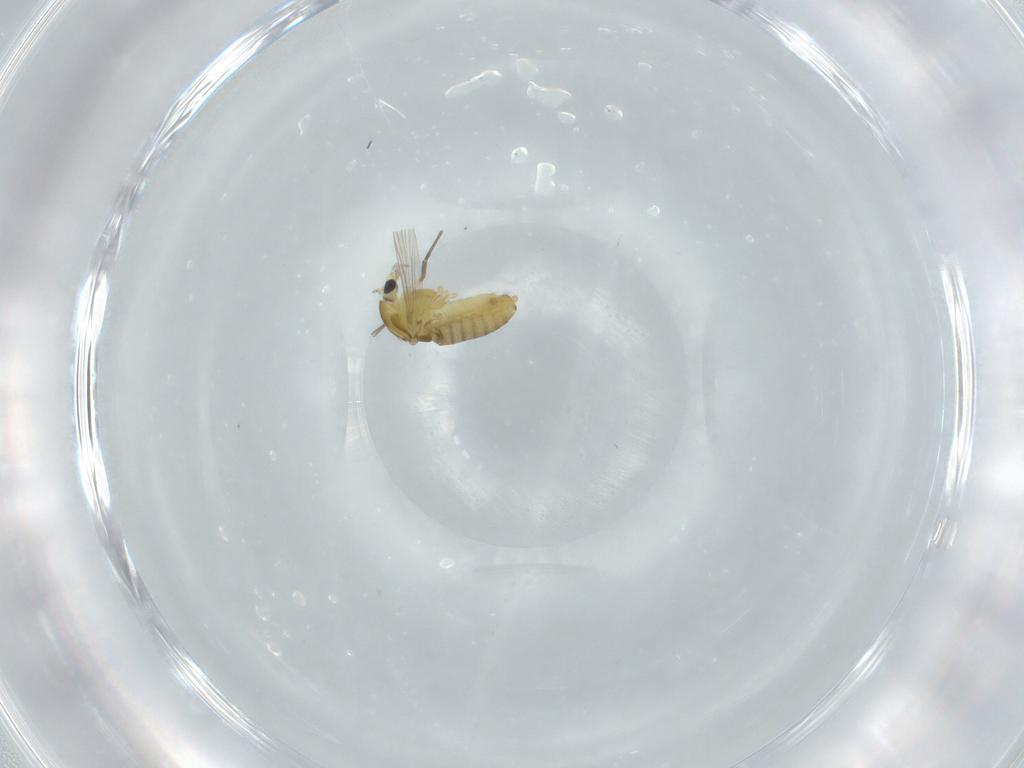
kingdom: Animalia
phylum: Arthropoda
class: Insecta
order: Diptera
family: Chironomidae
